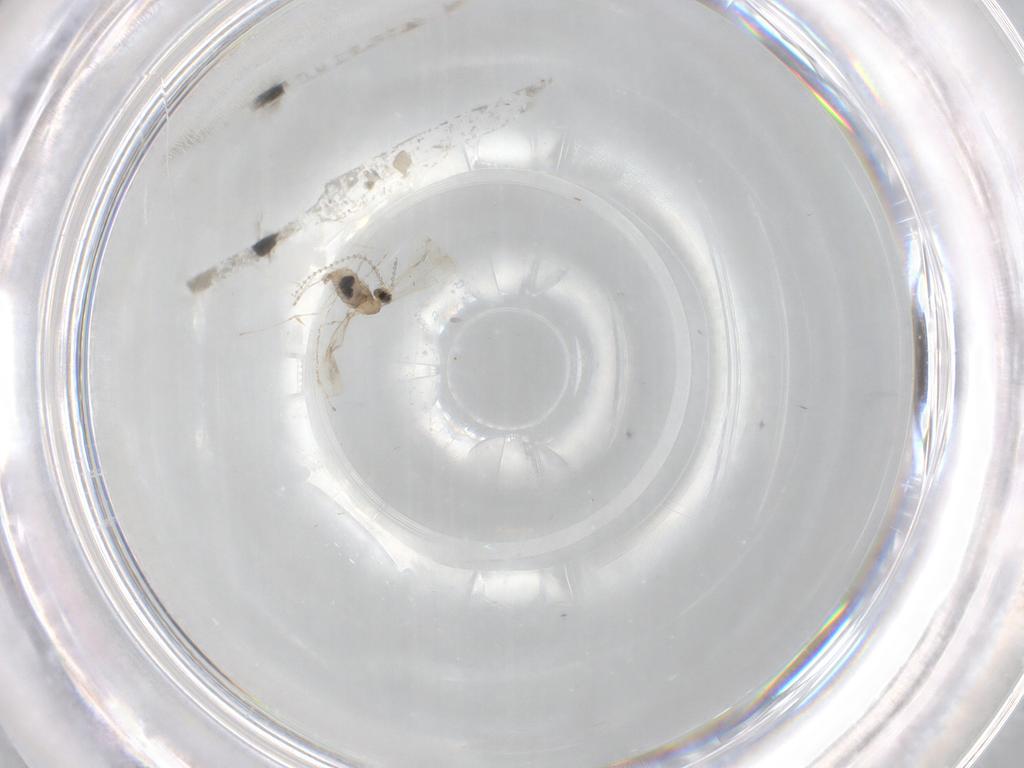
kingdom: Animalia
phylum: Arthropoda
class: Insecta
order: Diptera
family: Cecidomyiidae
